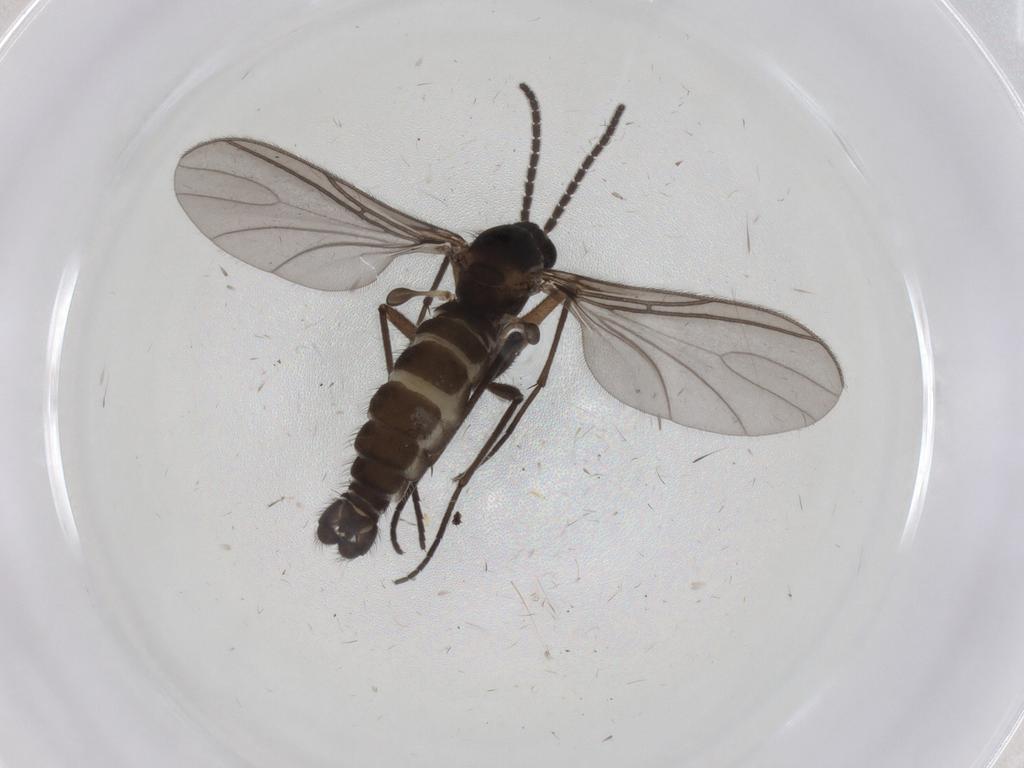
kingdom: Animalia
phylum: Arthropoda
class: Insecta
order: Diptera
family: Sciaridae
